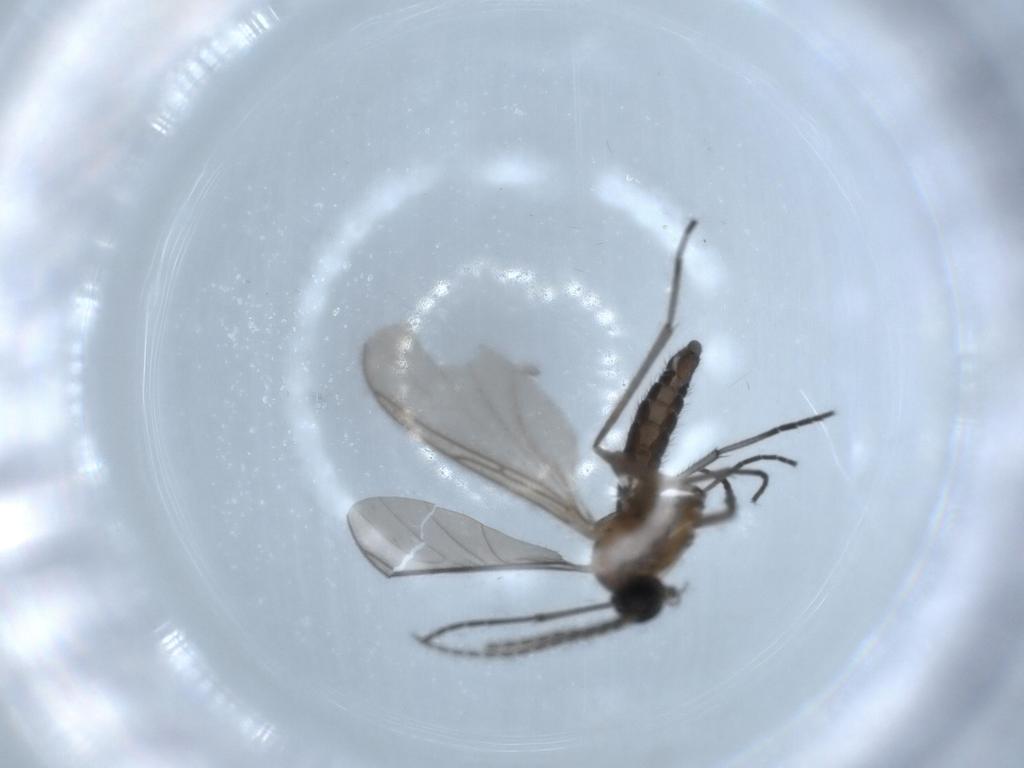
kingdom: Animalia
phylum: Arthropoda
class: Insecta
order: Diptera
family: Sciaridae
